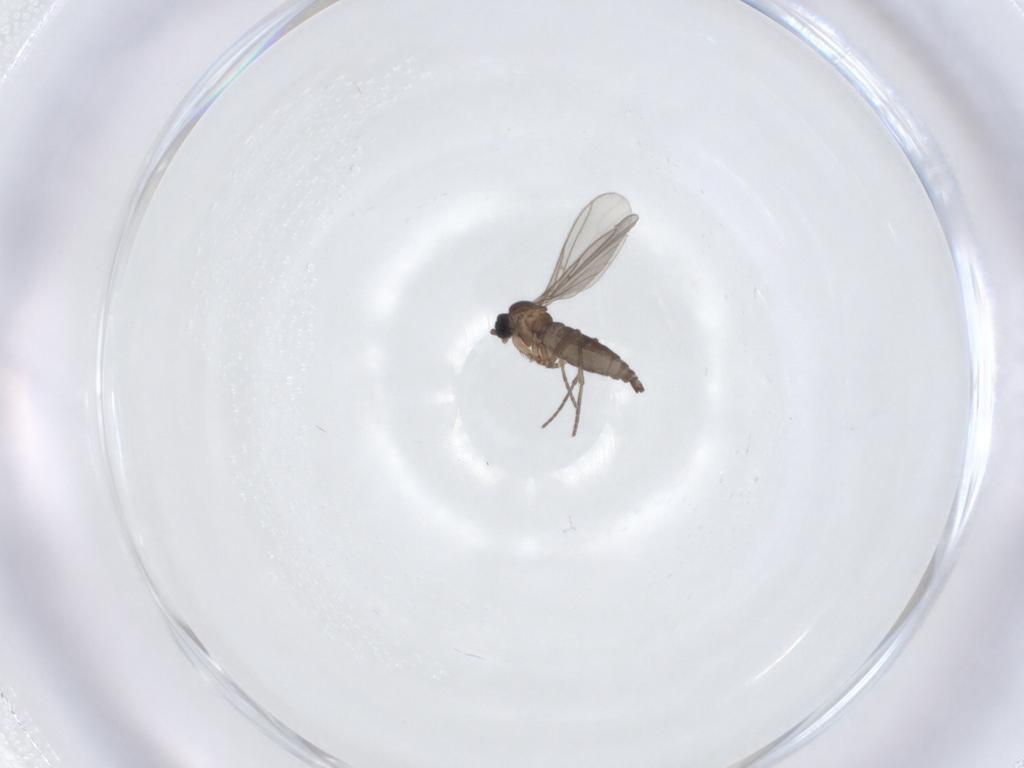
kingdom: Animalia
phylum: Arthropoda
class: Insecta
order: Diptera
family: Sciaridae
